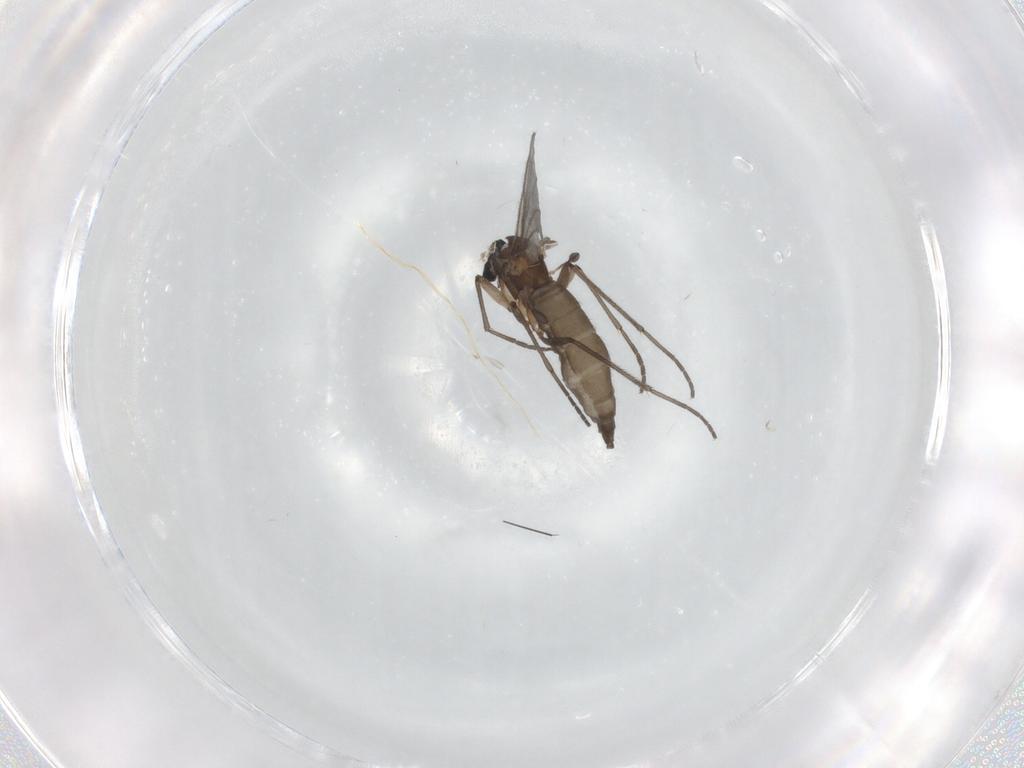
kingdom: Animalia
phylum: Arthropoda
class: Insecta
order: Diptera
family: Sciaridae
